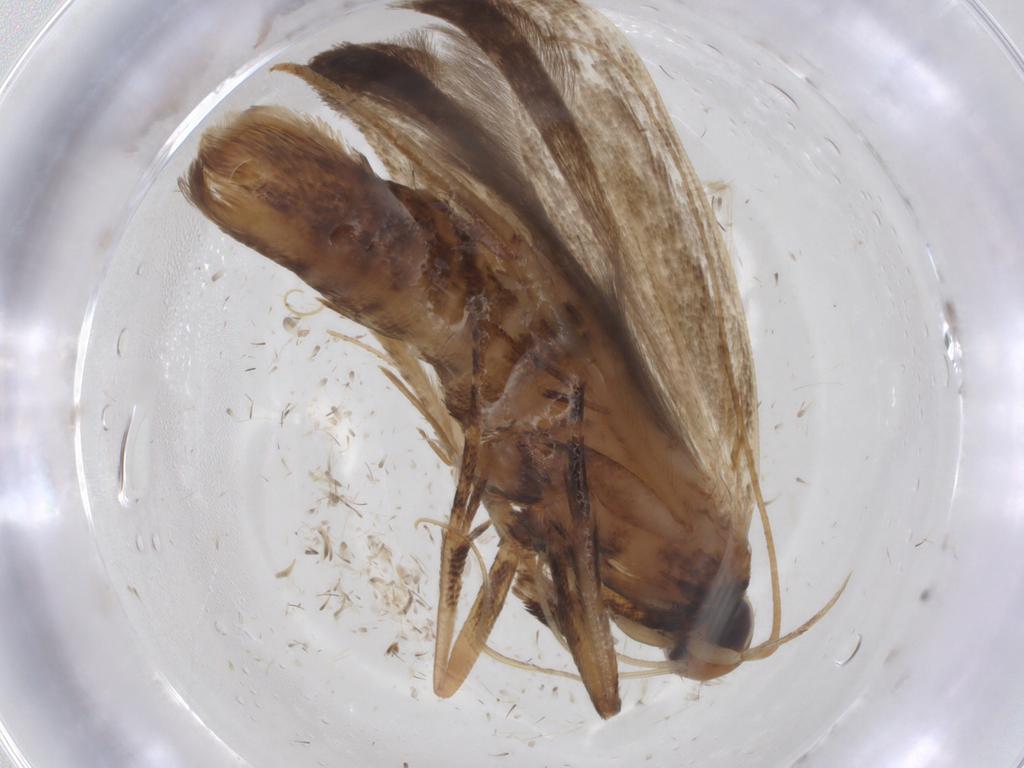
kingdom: Animalia
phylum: Arthropoda
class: Insecta
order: Lepidoptera
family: Gelechiidae
